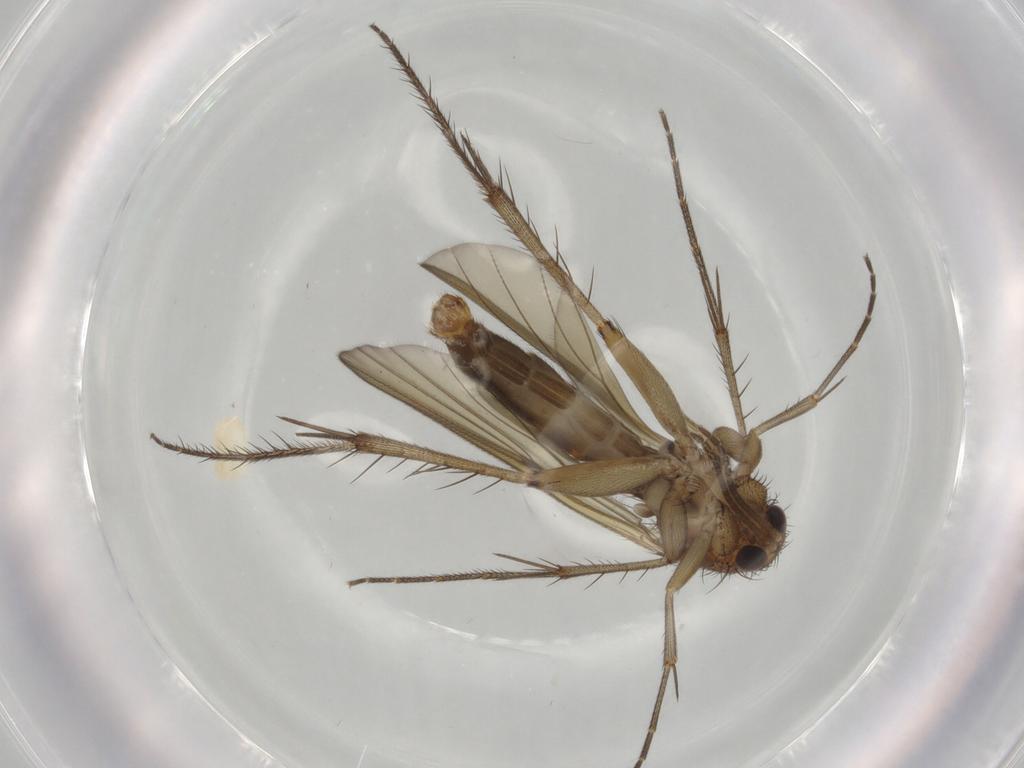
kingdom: Animalia
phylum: Arthropoda
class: Insecta
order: Diptera
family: Mycetophilidae
